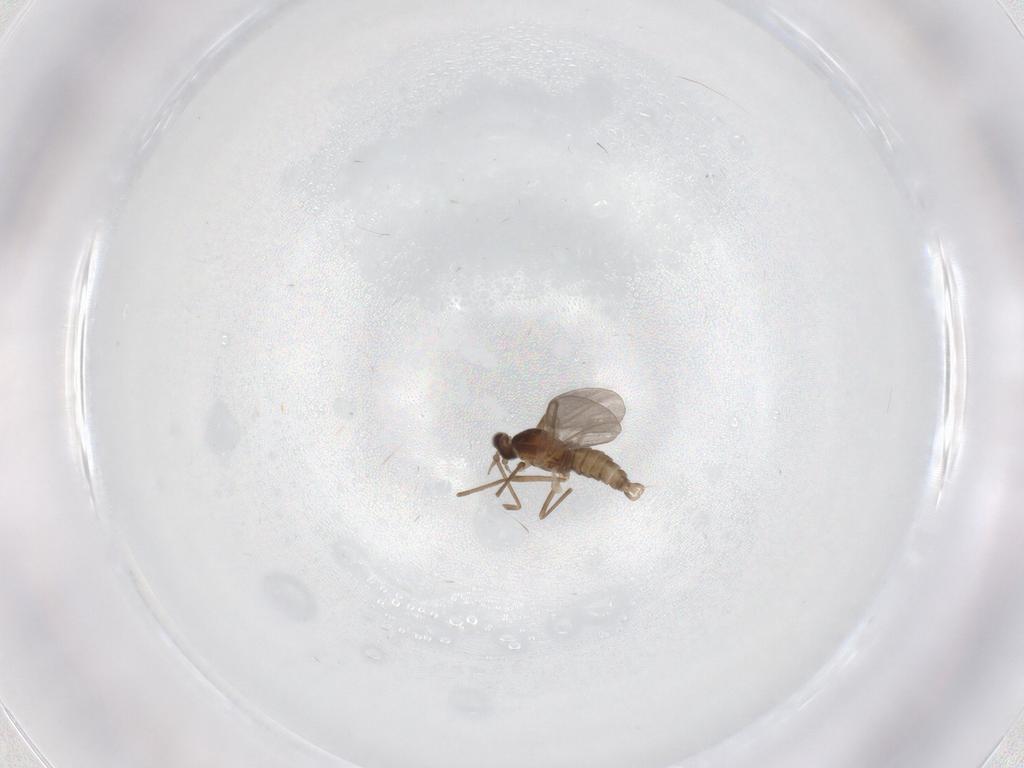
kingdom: Animalia
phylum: Arthropoda
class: Insecta
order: Diptera
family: Cecidomyiidae
